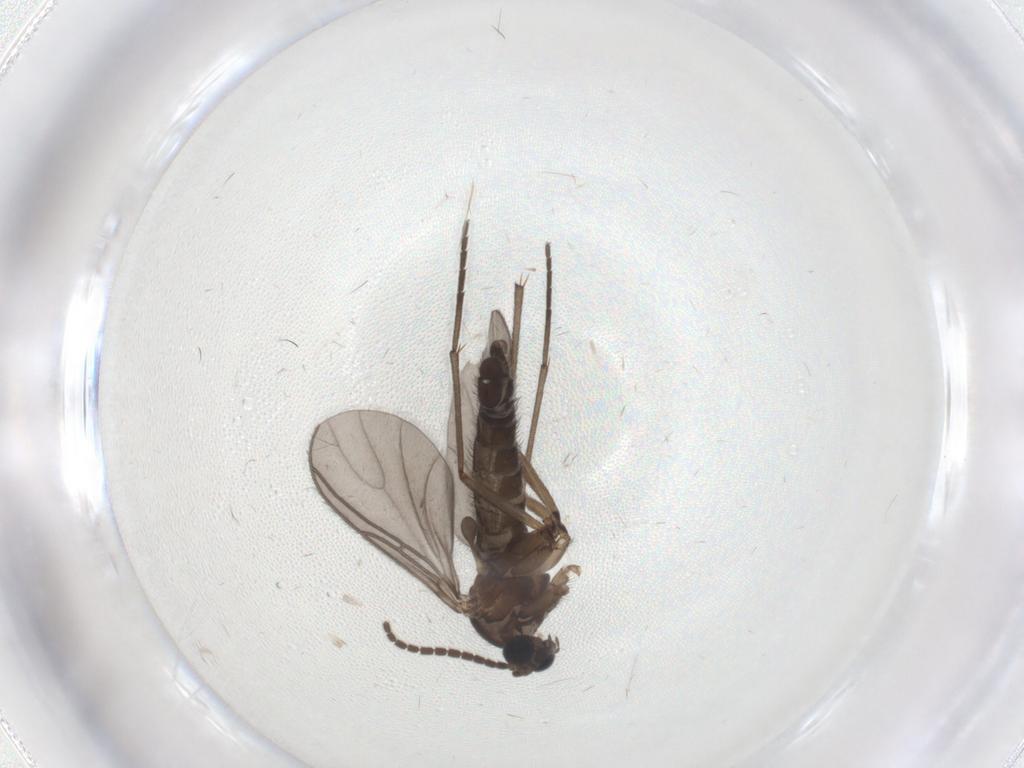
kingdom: Animalia
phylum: Arthropoda
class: Insecta
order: Diptera
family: Sciaridae
